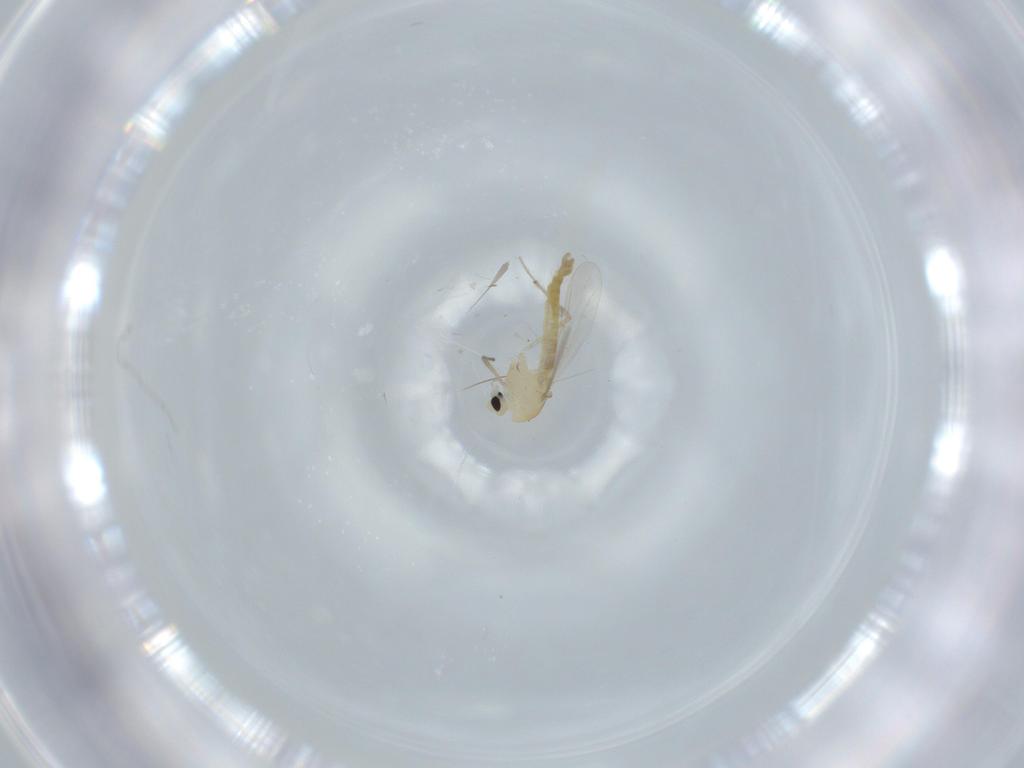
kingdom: Animalia
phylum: Arthropoda
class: Insecta
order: Diptera
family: Chironomidae
